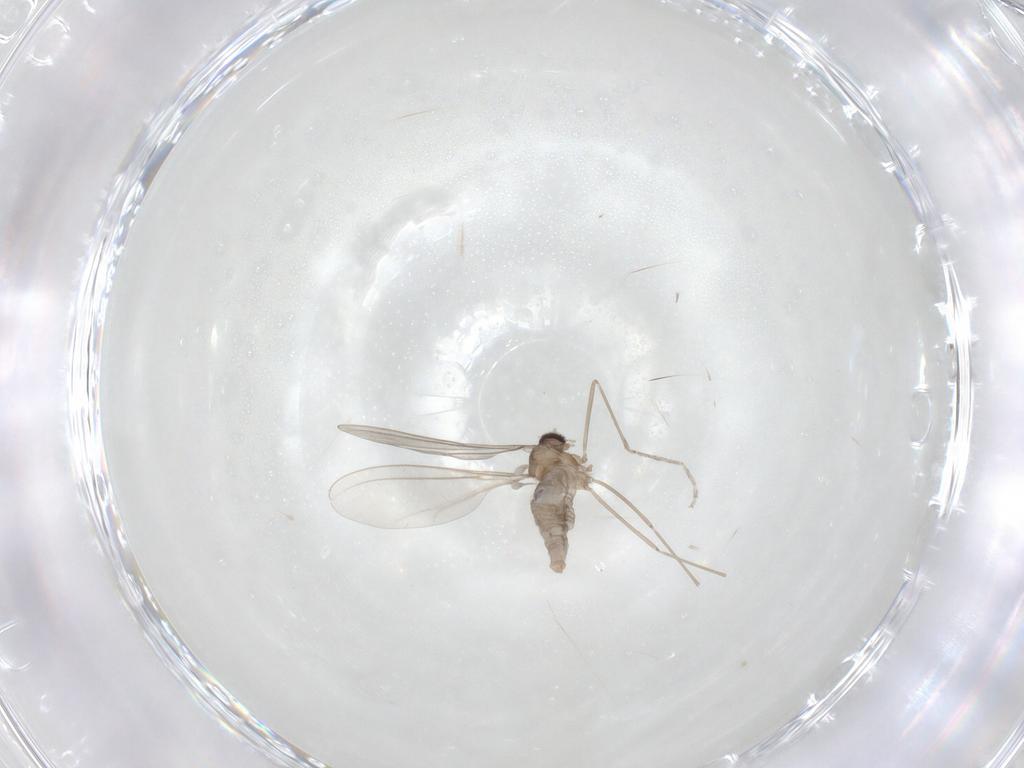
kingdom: Animalia
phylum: Arthropoda
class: Insecta
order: Diptera
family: Cecidomyiidae
